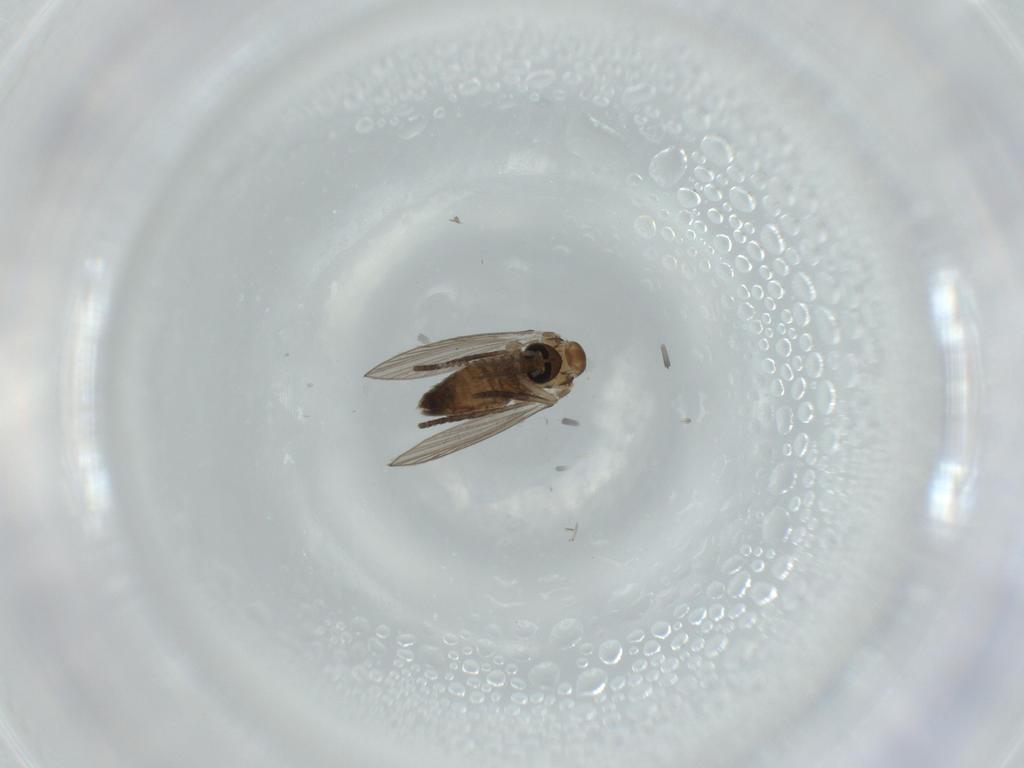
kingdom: Animalia
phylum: Arthropoda
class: Insecta
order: Diptera
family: Psychodidae
